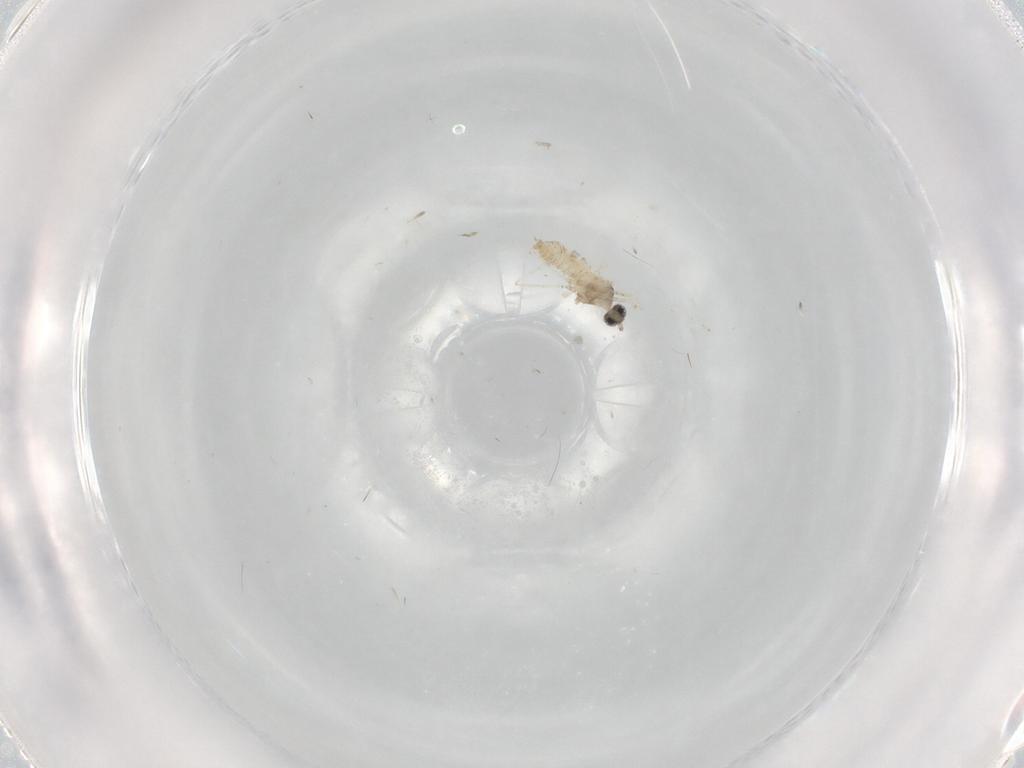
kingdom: Animalia
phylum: Arthropoda
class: Insecta
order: Diptera
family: Cecidomyiidae
